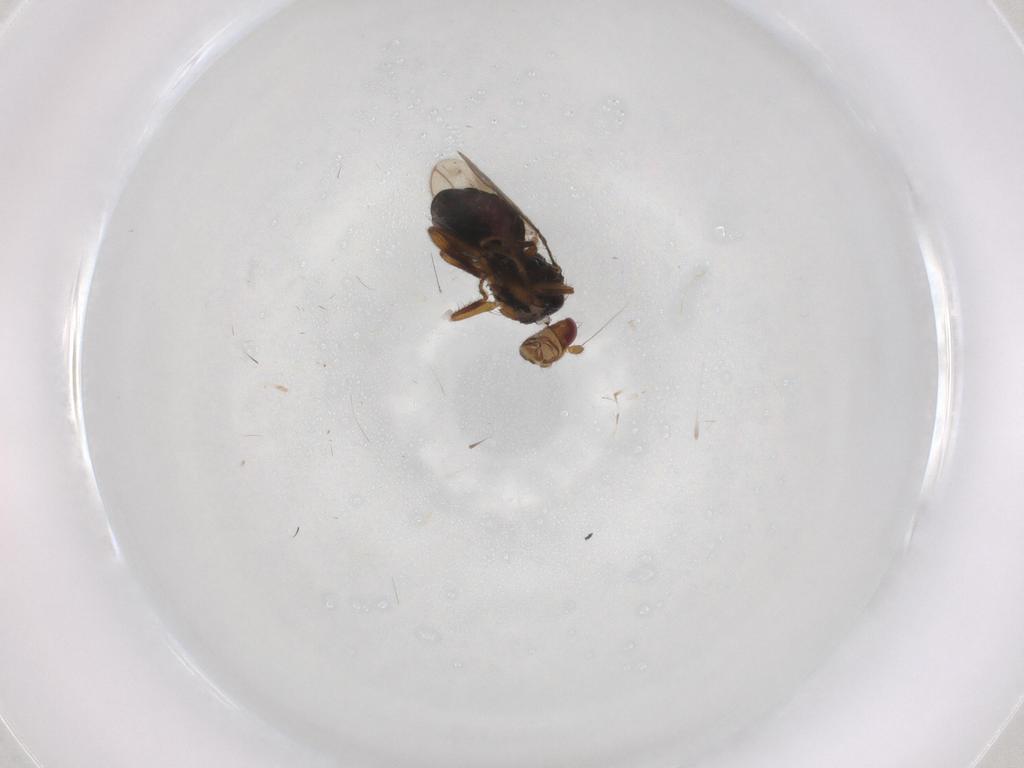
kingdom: Animalia
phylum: Arthropoda
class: Insecta
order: Diptera
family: Sphaeroceridae
